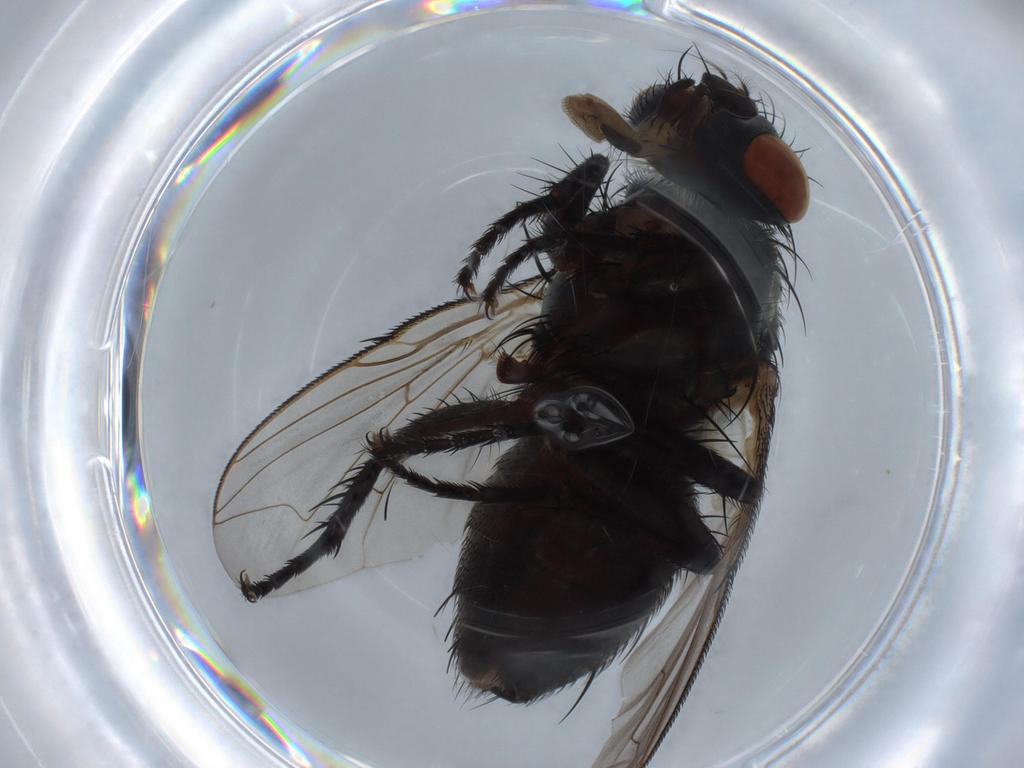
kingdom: Animalia
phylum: Arthropoda
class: Insecta
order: Diptera
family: Sarcophagidae
